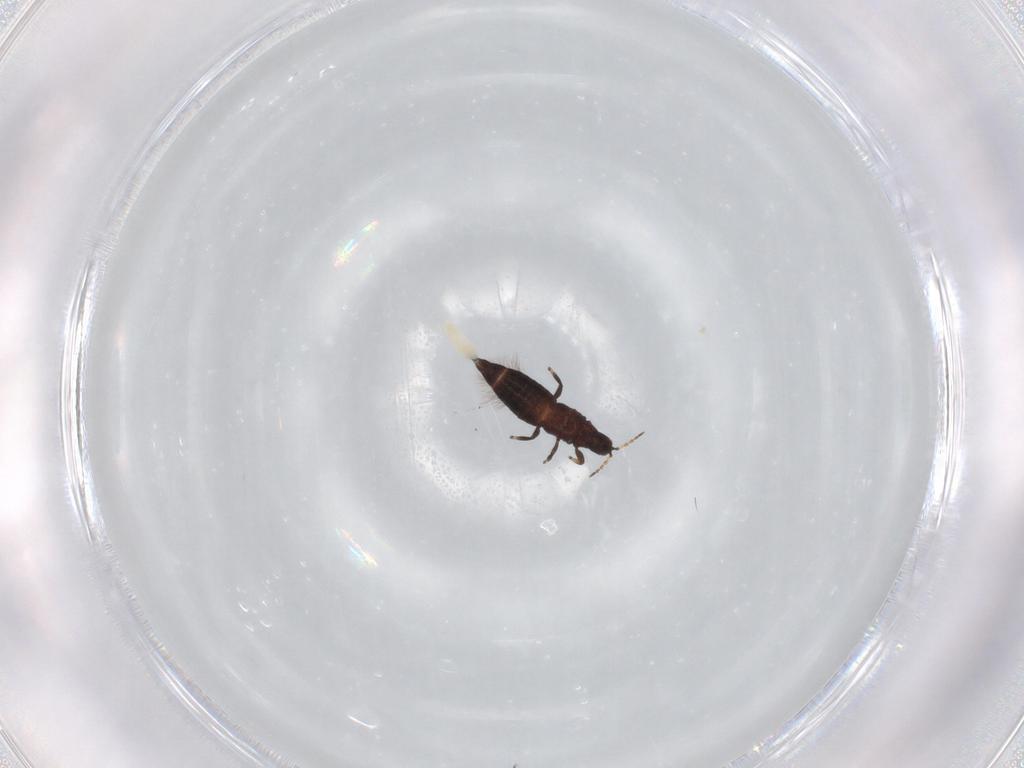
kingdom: Animalia
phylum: Arthropoda
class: Insecta
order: Thysanoptera
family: Phlaeothripidae
